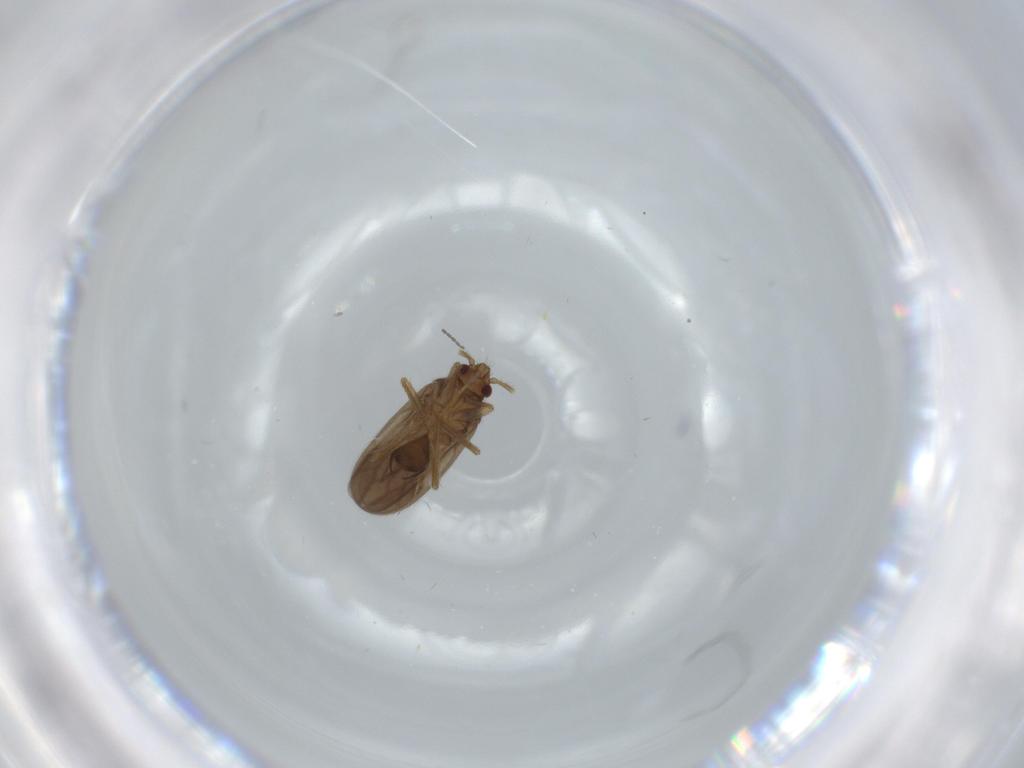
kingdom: Animalia
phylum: Arthropoda
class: Insecta
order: Hemiptera
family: Ceratocombidae
